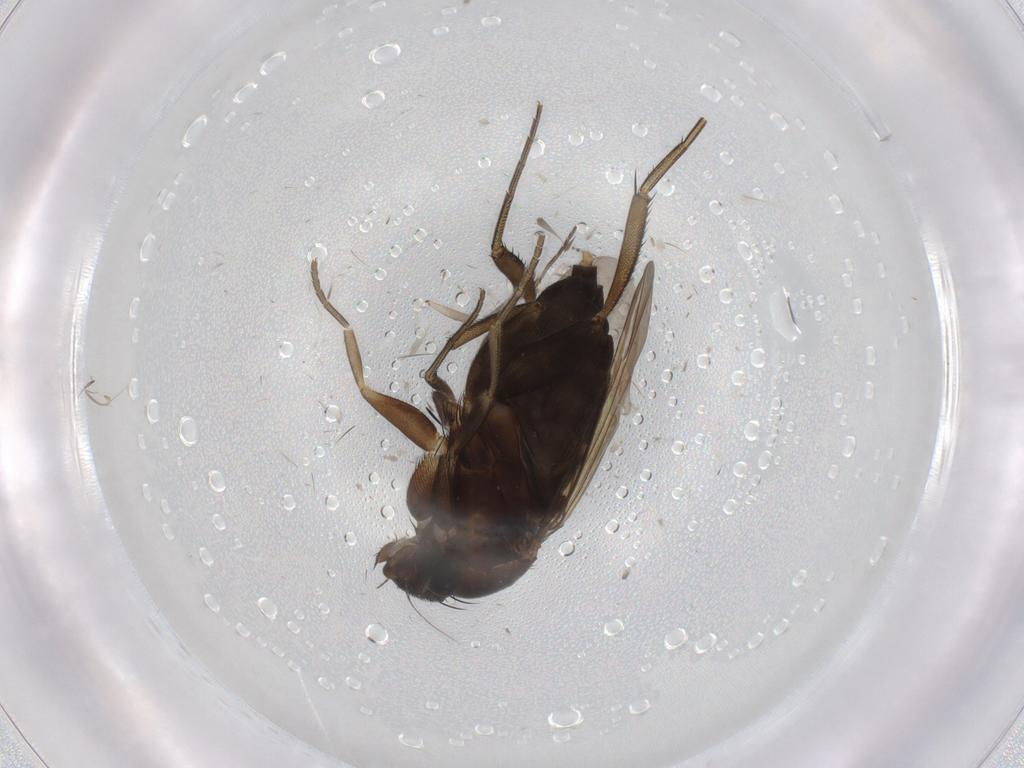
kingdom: Animalia
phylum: Arthropoda
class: Insecta
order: Diptera
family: Phoridae
